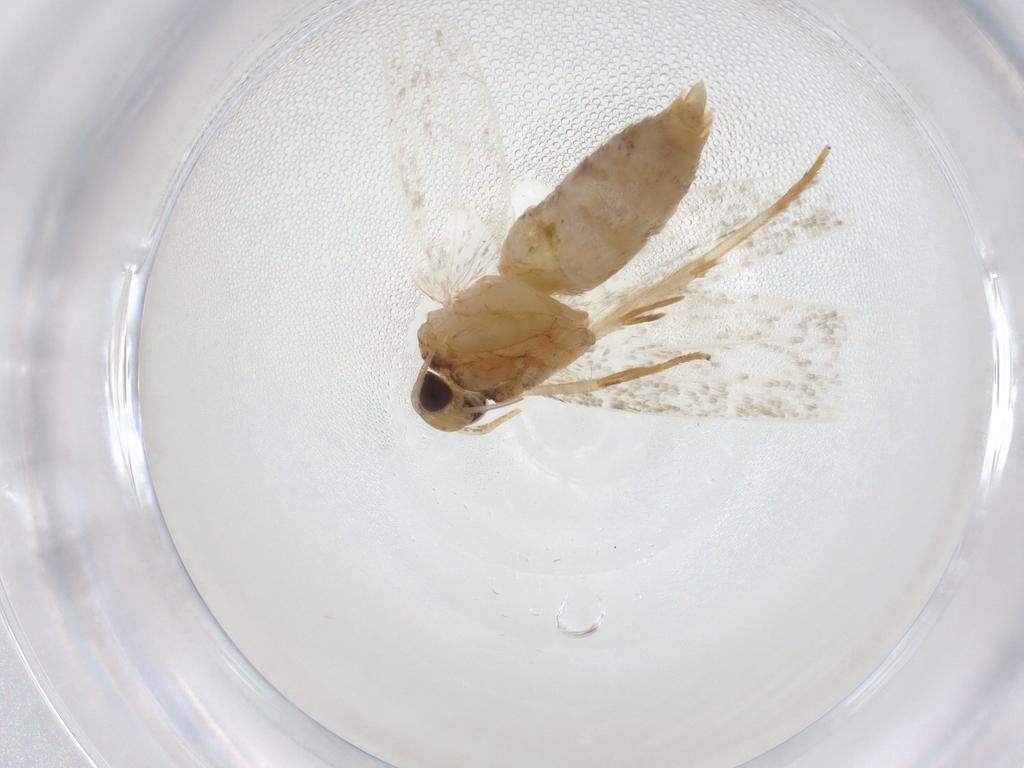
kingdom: Animalia
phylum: Arthropoda
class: Insecta
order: Lepidoptera
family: Oecophoridae
